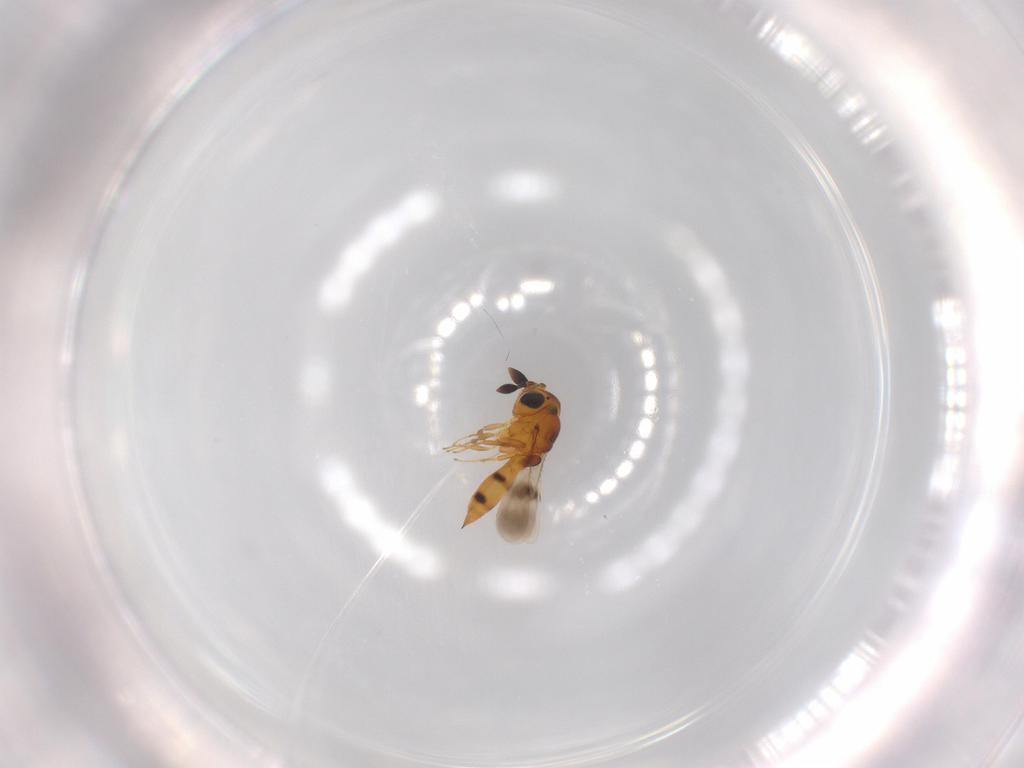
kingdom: Animalia
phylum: Arthropoda
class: Insecta
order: Hymenoptera
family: Scelionidae
